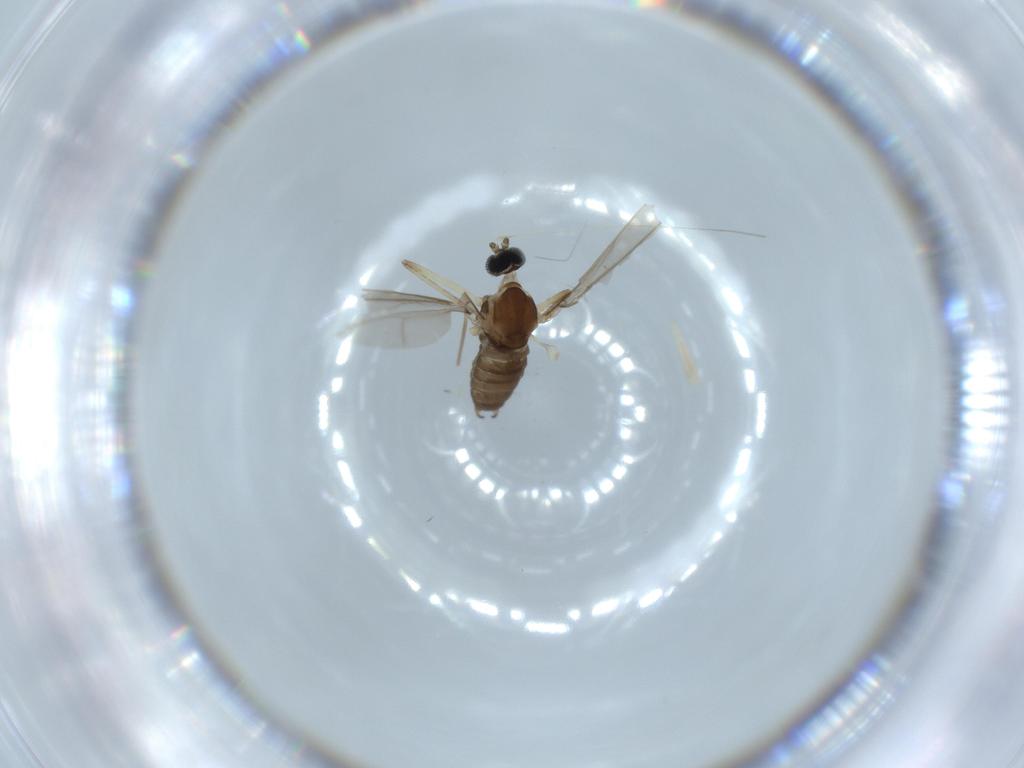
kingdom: Animalia
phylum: Arthropoda
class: Insecta
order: Diptera
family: Cecidomyiidae
